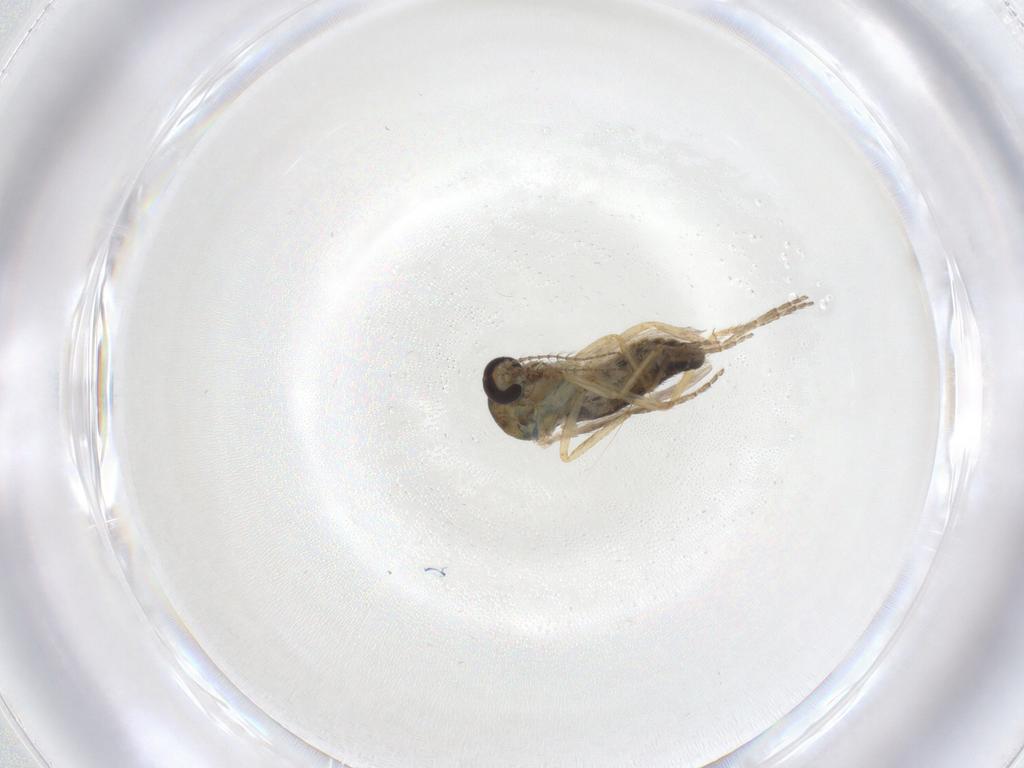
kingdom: Animalia
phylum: Arthropoda
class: Insecta
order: Diptera
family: Ceratopogonidae
